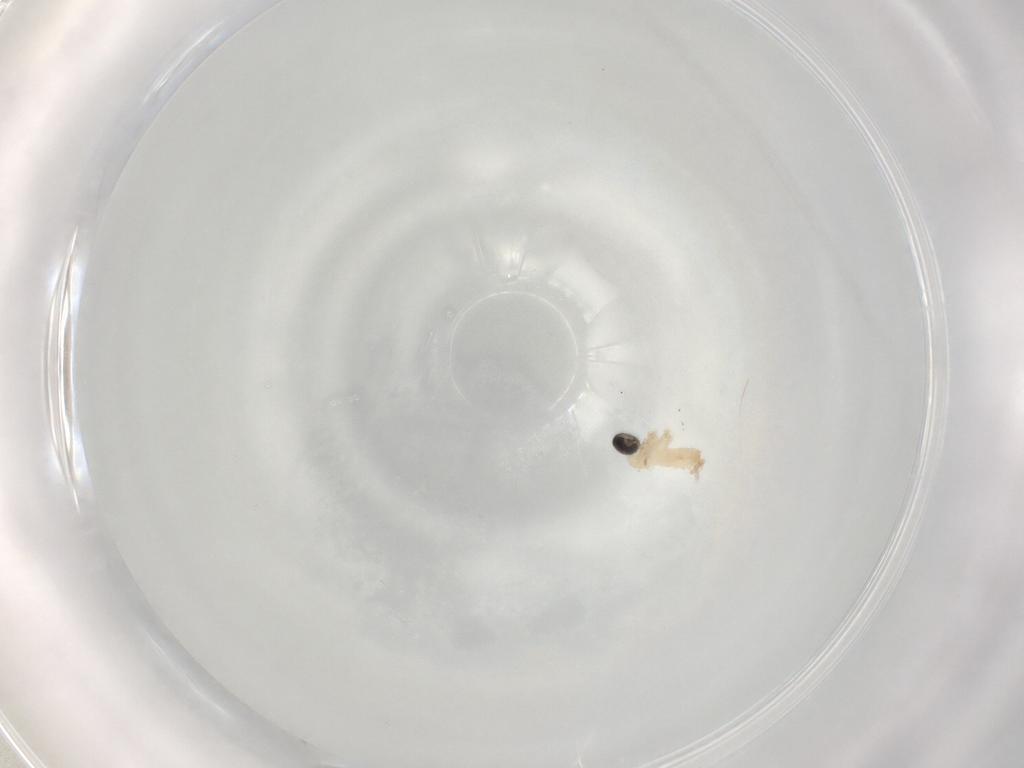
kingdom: Animalia
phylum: Arthropoda
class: Insecta
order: Diptera
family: Cecidomyiidae
